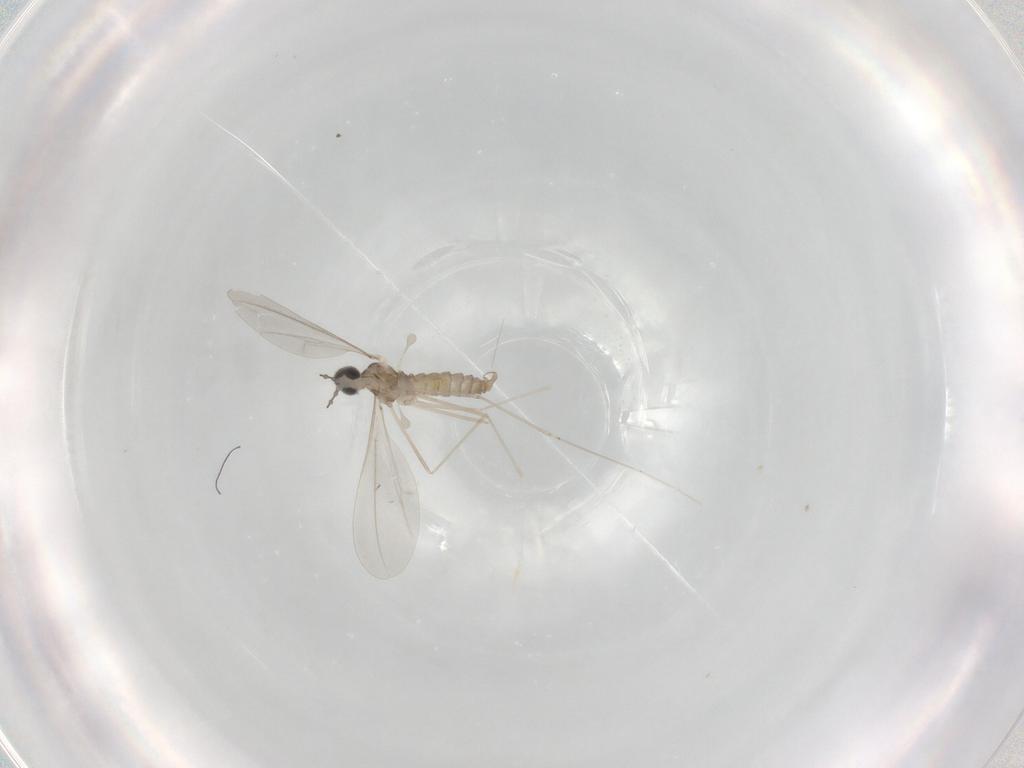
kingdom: Animalia
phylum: Arthropoda
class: Insecta
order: Diptera
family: Cecidomyiidae
